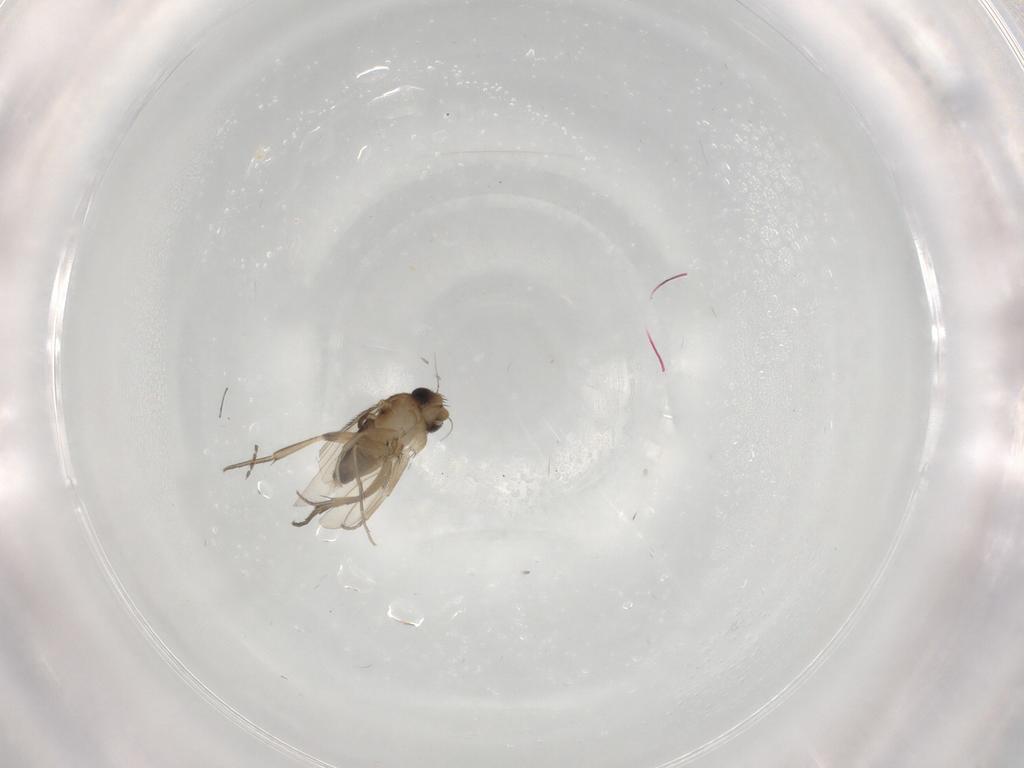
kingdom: Animalia
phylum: Arthropoda
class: Insecta
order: Diptera
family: Phoridae
